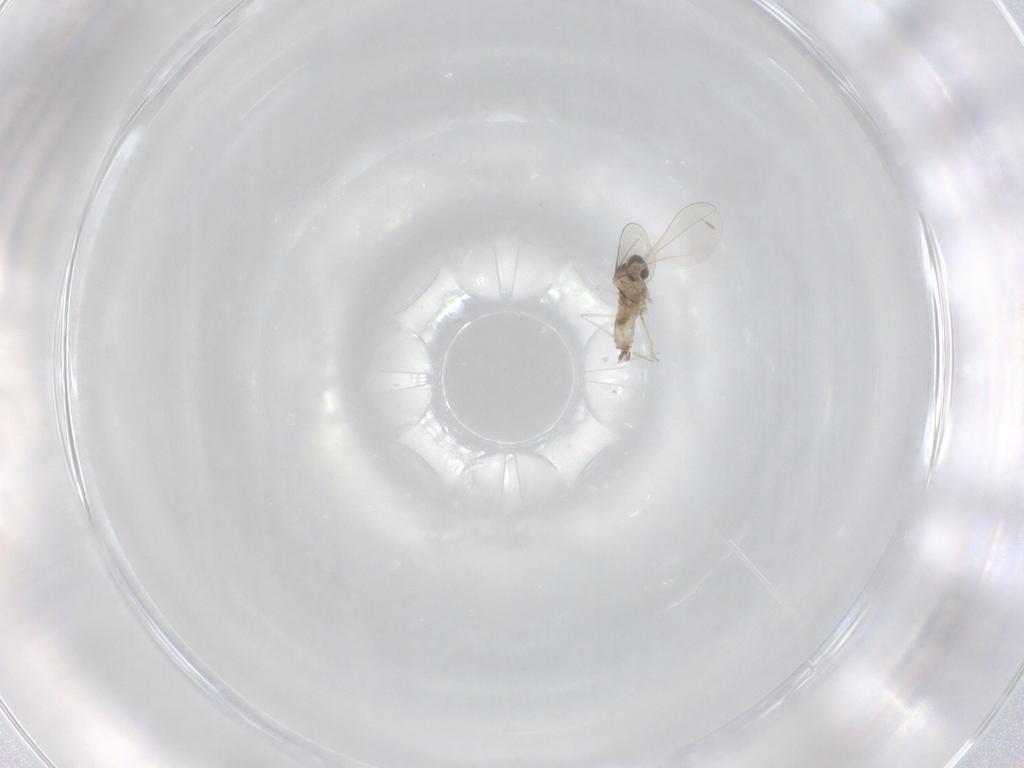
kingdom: Animalia
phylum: Arthropoda
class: Insecta
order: Diptera
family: Cecidomyiidae
